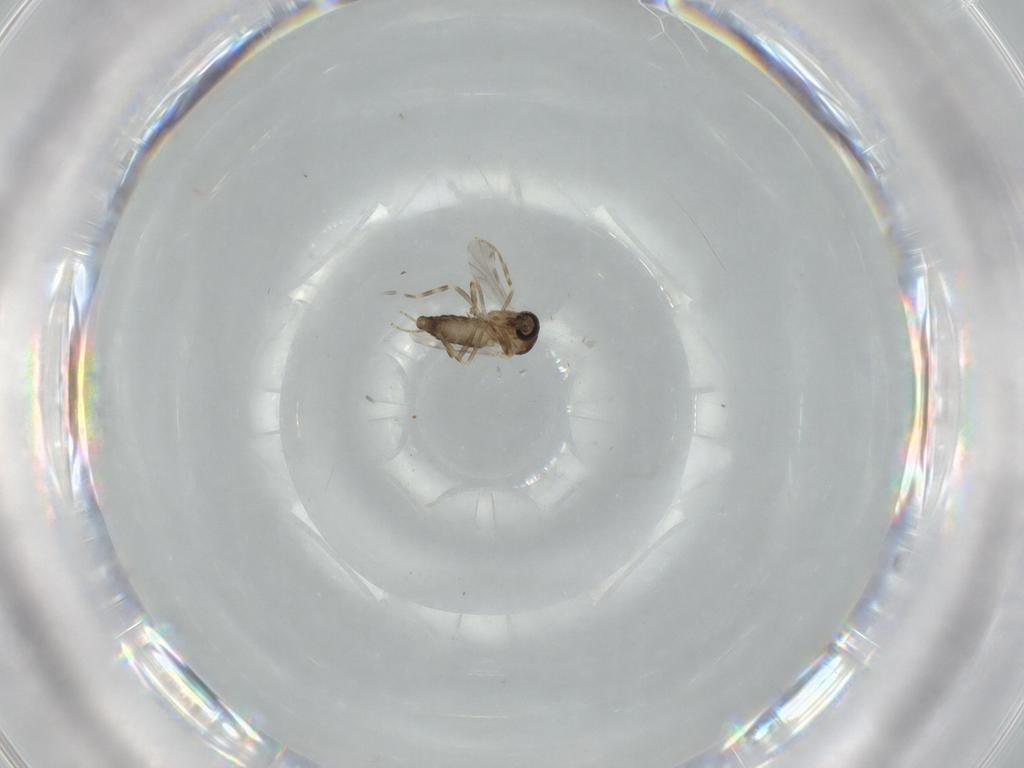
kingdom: Animalia
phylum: Arthropoda
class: Insecta
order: Diptera
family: Ceratopogonidae
